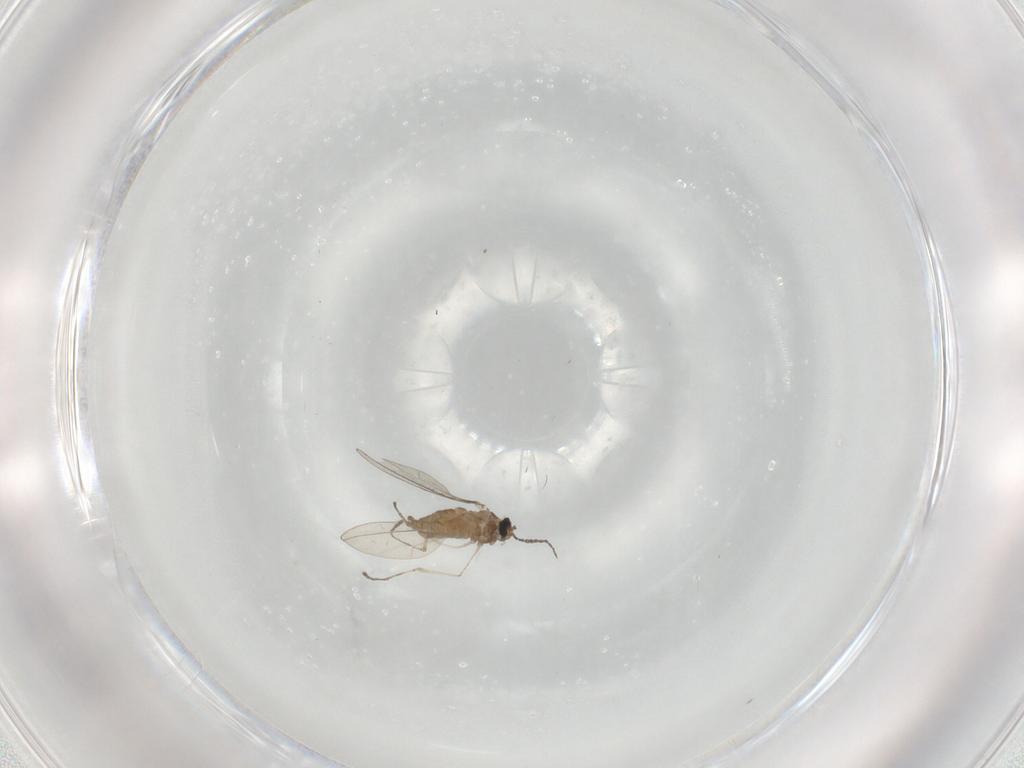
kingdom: Animalia
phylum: Arthropoda
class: Insecta
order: Diptera
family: Cecidomyiidae
